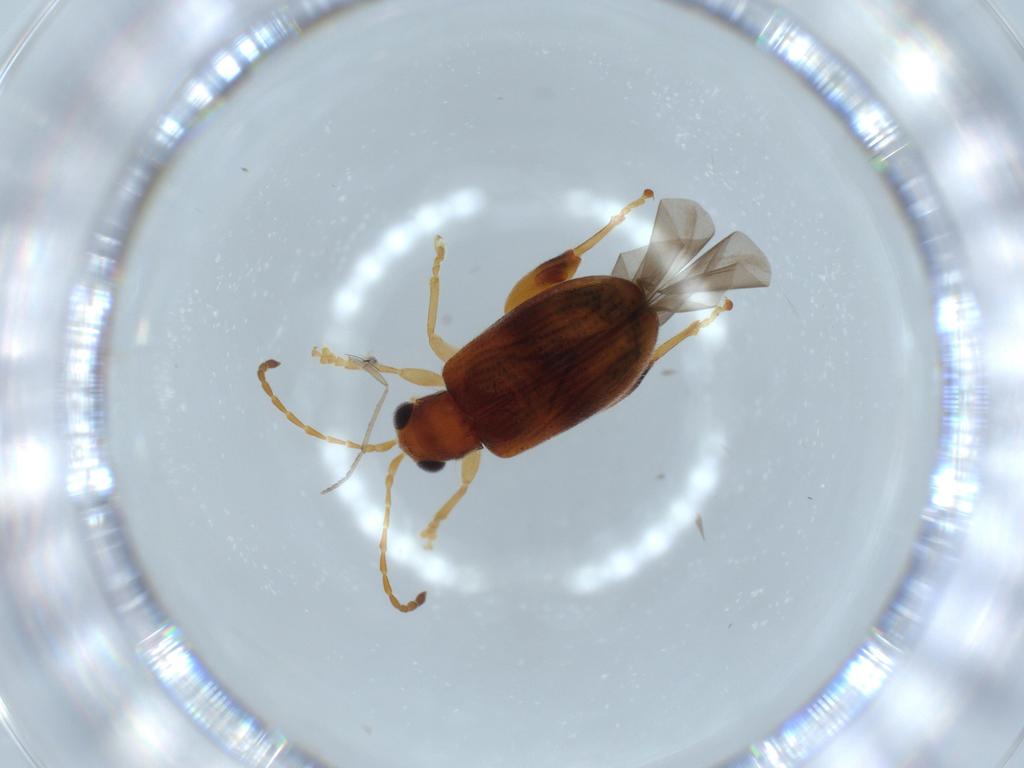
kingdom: Animalia
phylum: Arthropoda
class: Insecta
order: Coleoptera
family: Chrysomelidae
